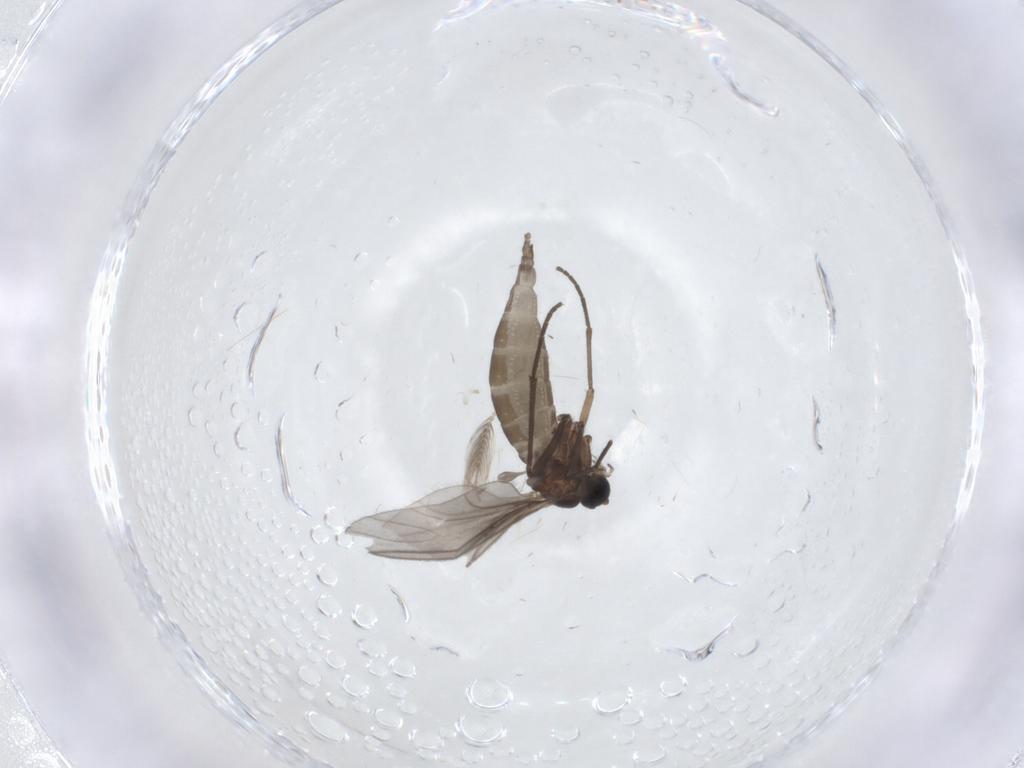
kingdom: Animalia
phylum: Arthropoda
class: Insecta
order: Diptera
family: Sciaridae
